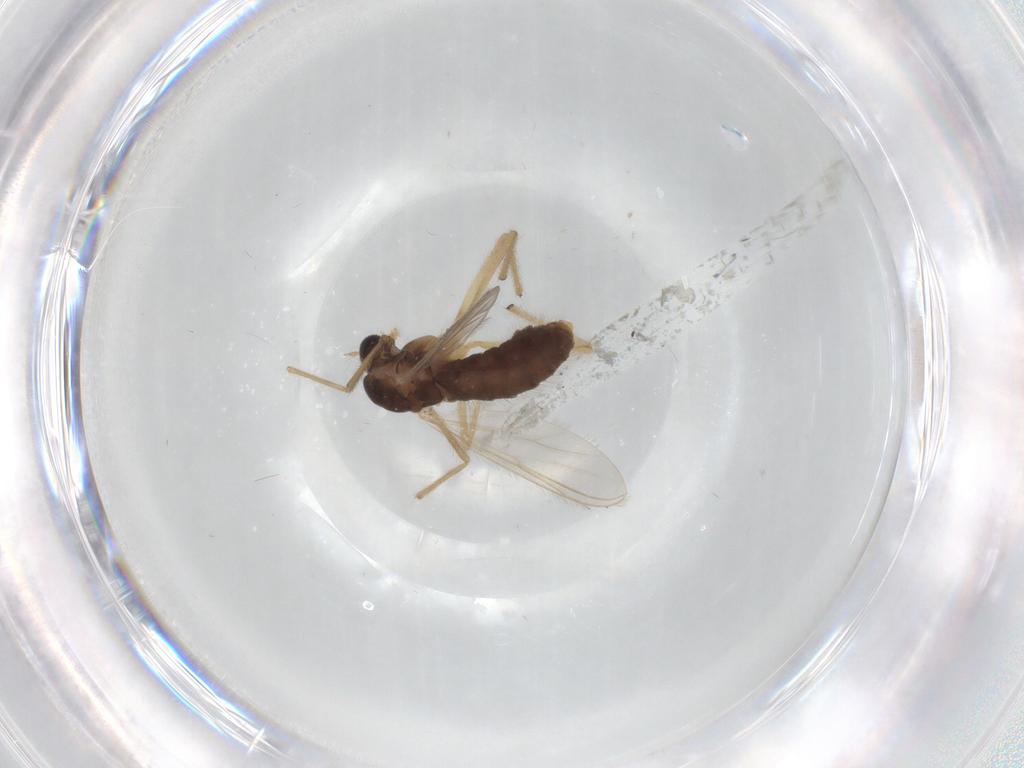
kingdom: Animalia
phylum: Arthropoda
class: Insecta
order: Diptera
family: Chironomidae
